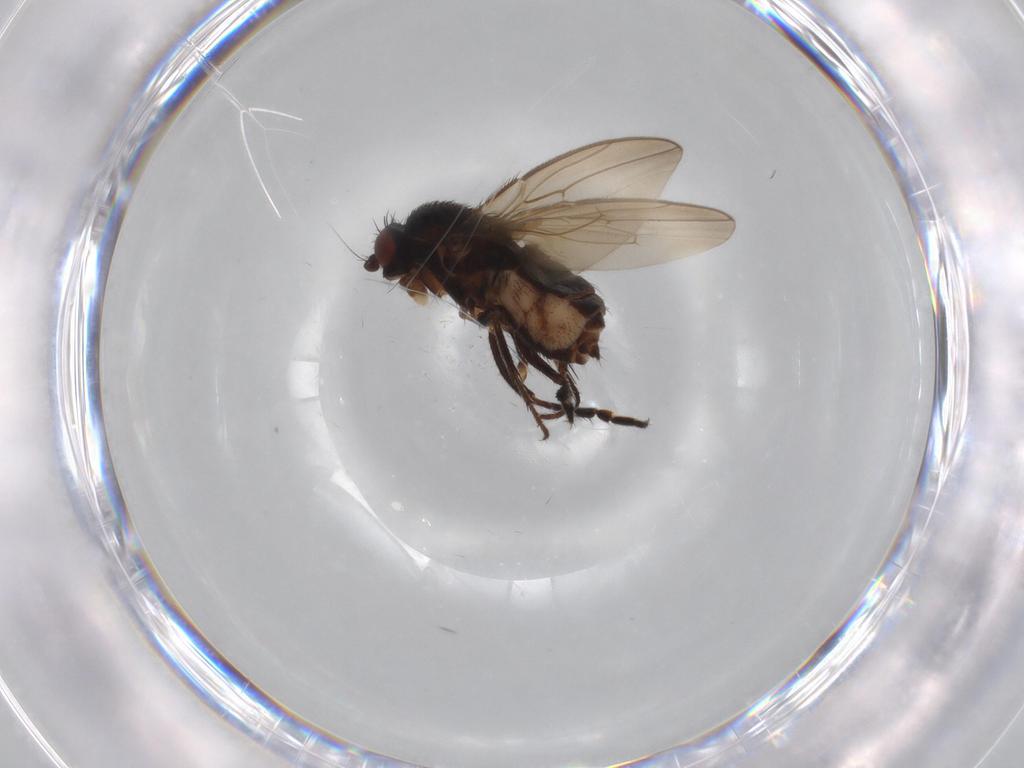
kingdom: Animalia
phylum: Arthropoda
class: Insecta
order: Diptera
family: Sphaeroceridae
